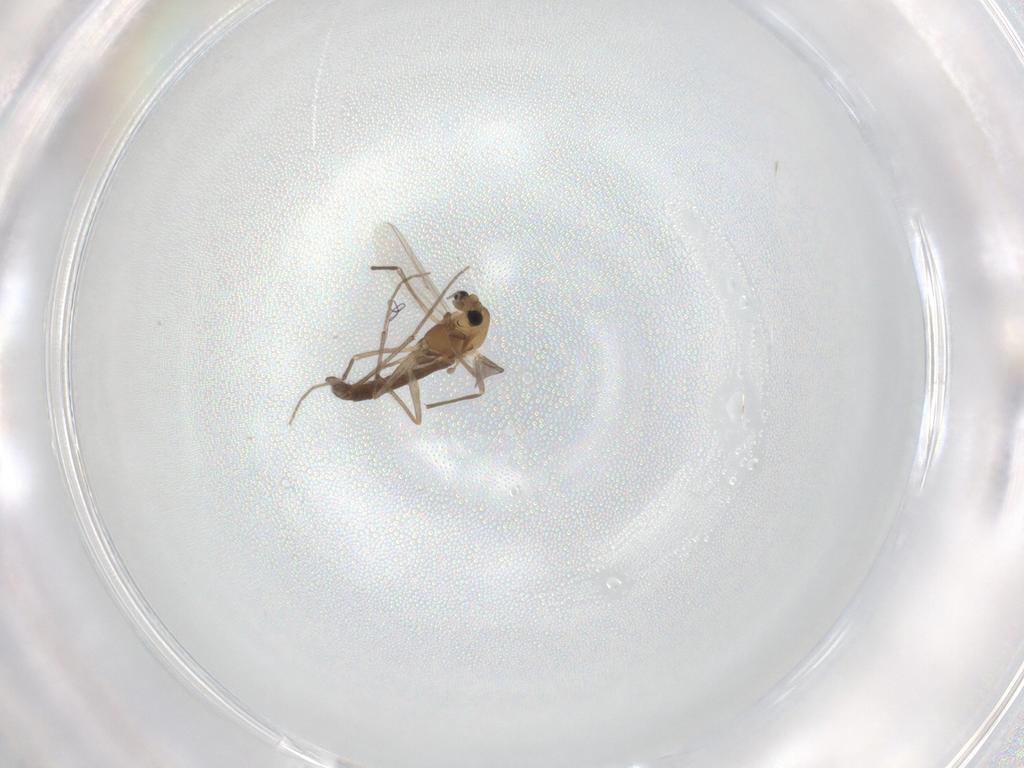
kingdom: Animalia
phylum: Arthropoda
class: Insecta
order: Diptera
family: Chironomidae
